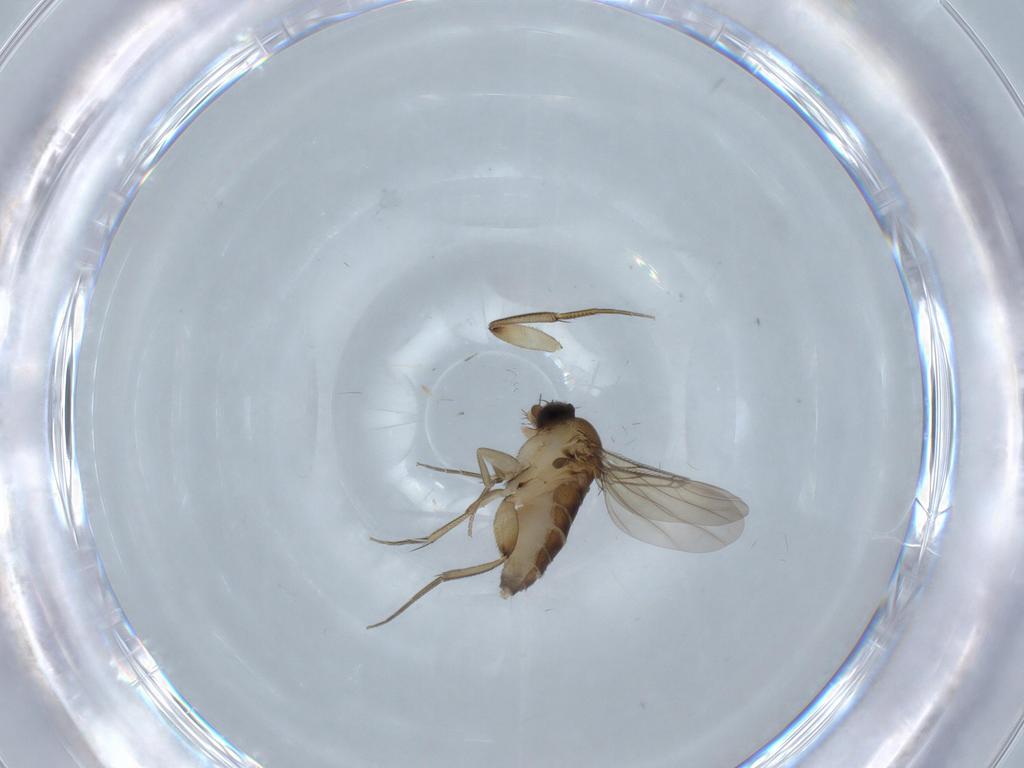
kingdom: Animalia
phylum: Arthropoda
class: Insecta
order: Diptera
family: Phoridae
